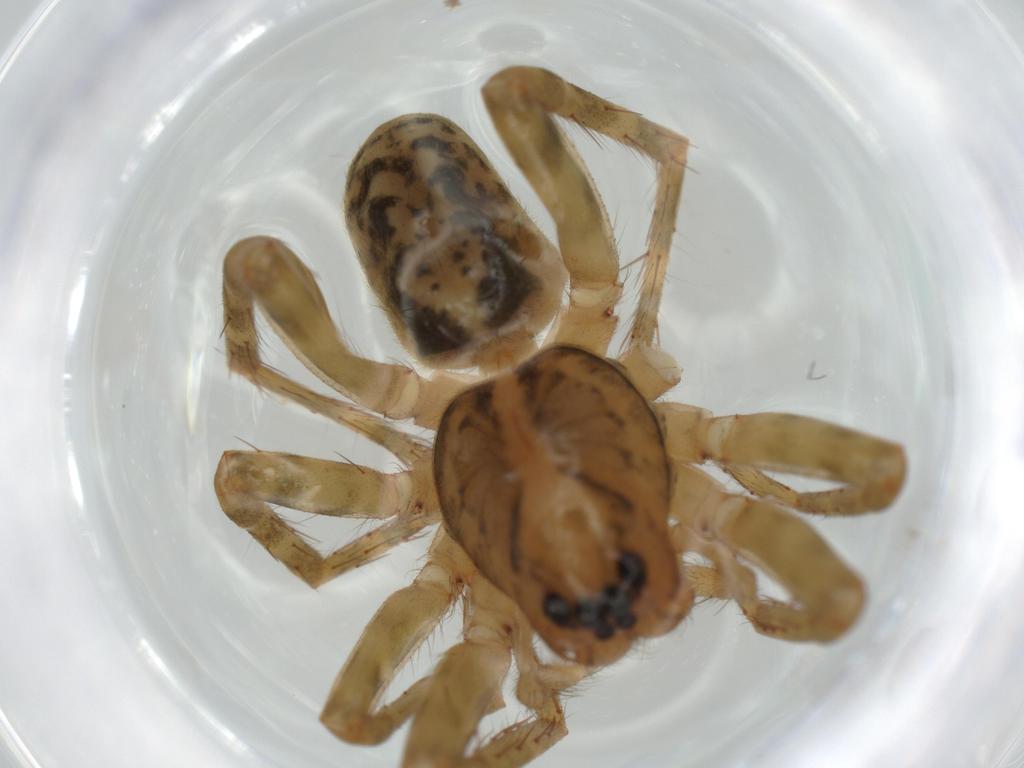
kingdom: Animalia
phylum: Arthropoda
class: Arachnida
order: Araneae
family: Ctenidae
